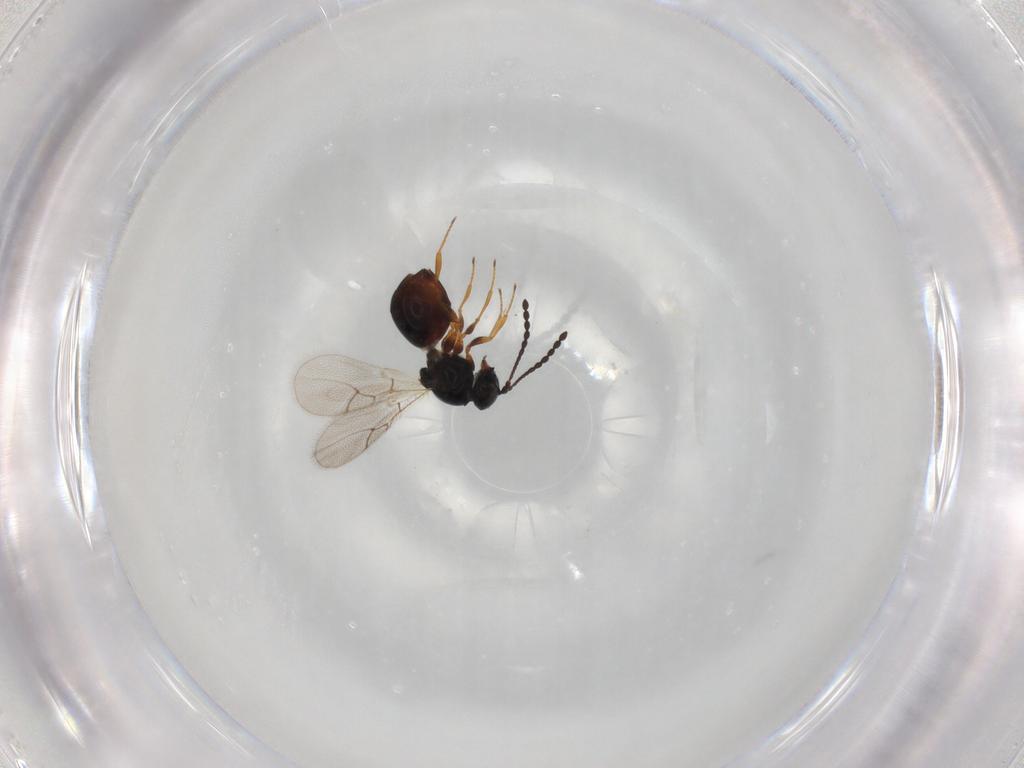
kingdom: Animalia
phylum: Arthropoda
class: Insecta
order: Hymenoptera
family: Figitidae
